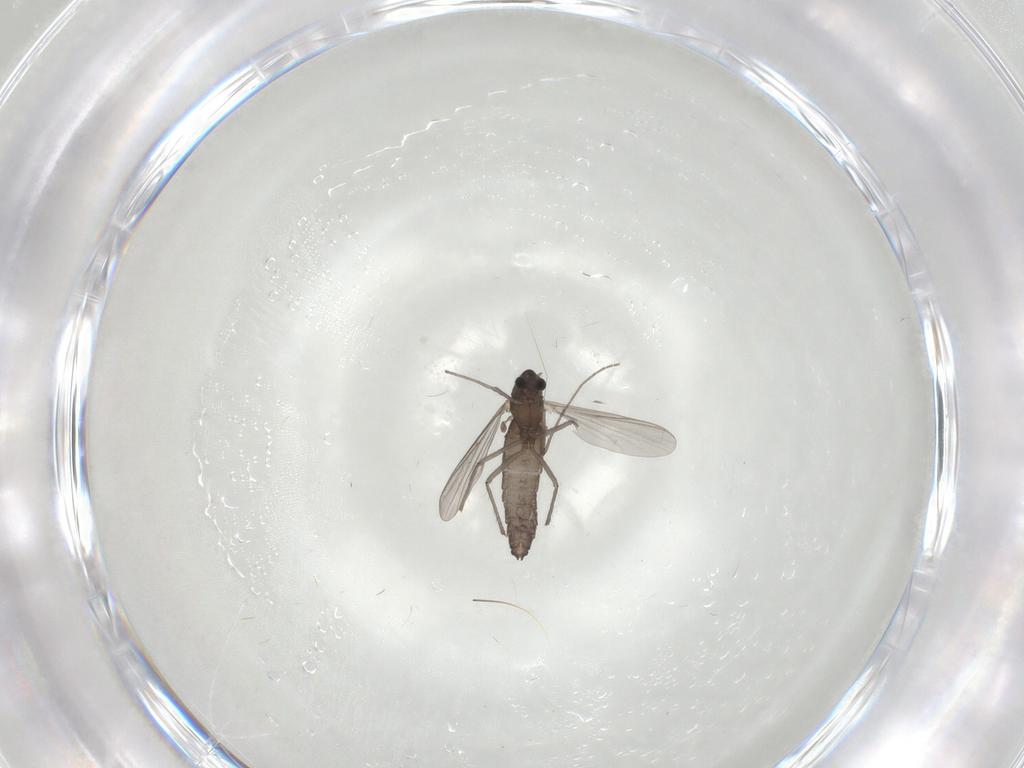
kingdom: Animalia
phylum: Arthropoda
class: Insecta
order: Diptera
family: Chironomidae
